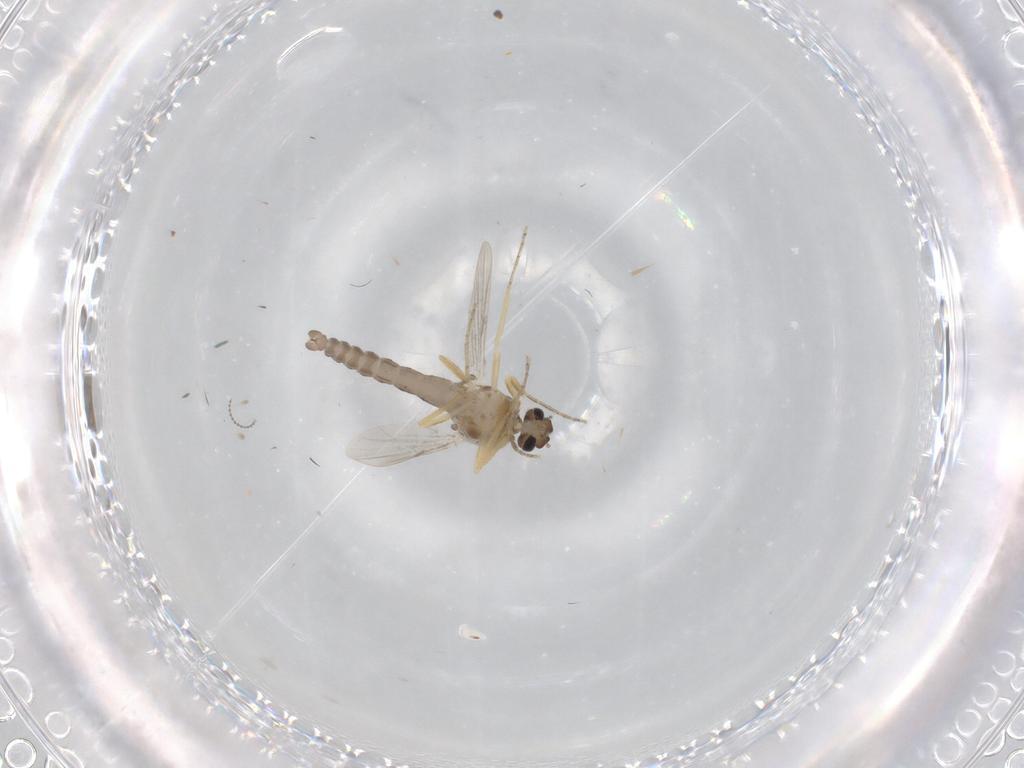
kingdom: Animalia
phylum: Arthropoda
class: Insecta
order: Diptera
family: Ceratopogonidae
